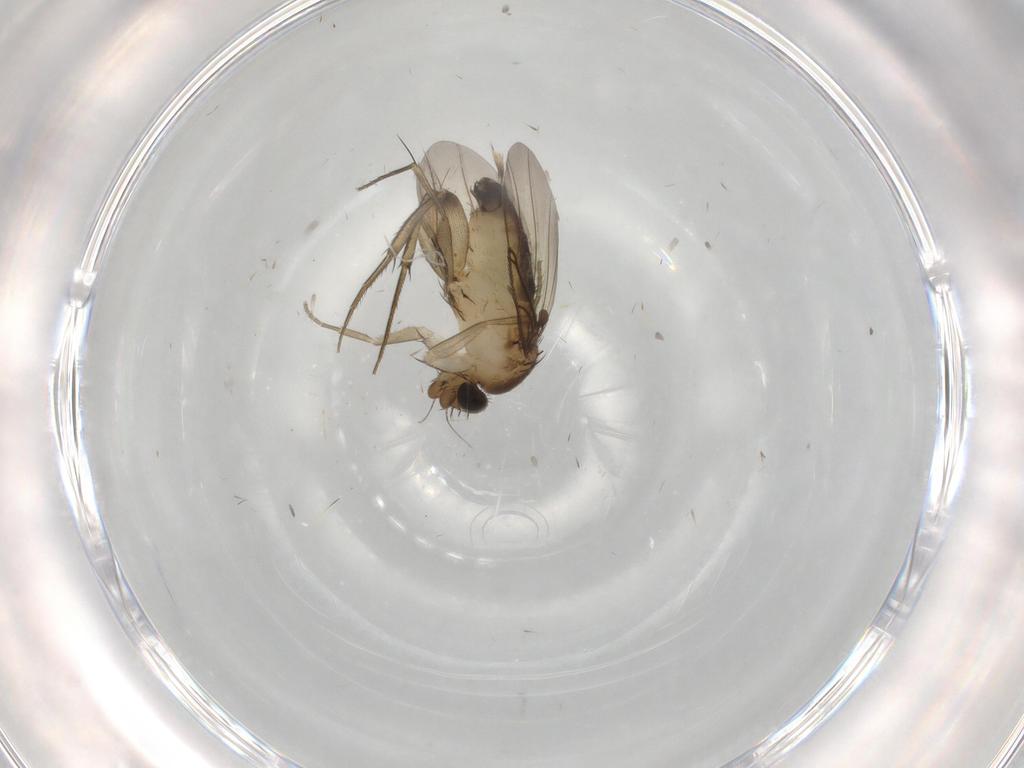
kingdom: Animalia
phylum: Arthropoda
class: Insecta
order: Diptera
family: Phoridae
